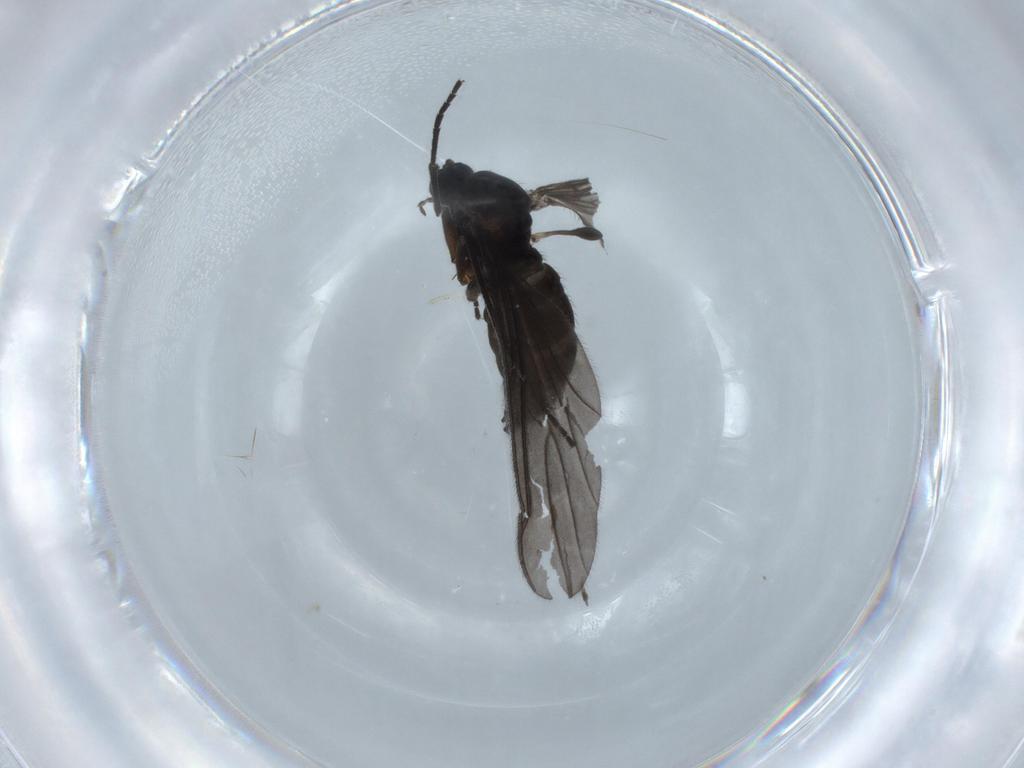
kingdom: Animalia
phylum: Arthropoda
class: Insecta
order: Diptera
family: Sciaridae
